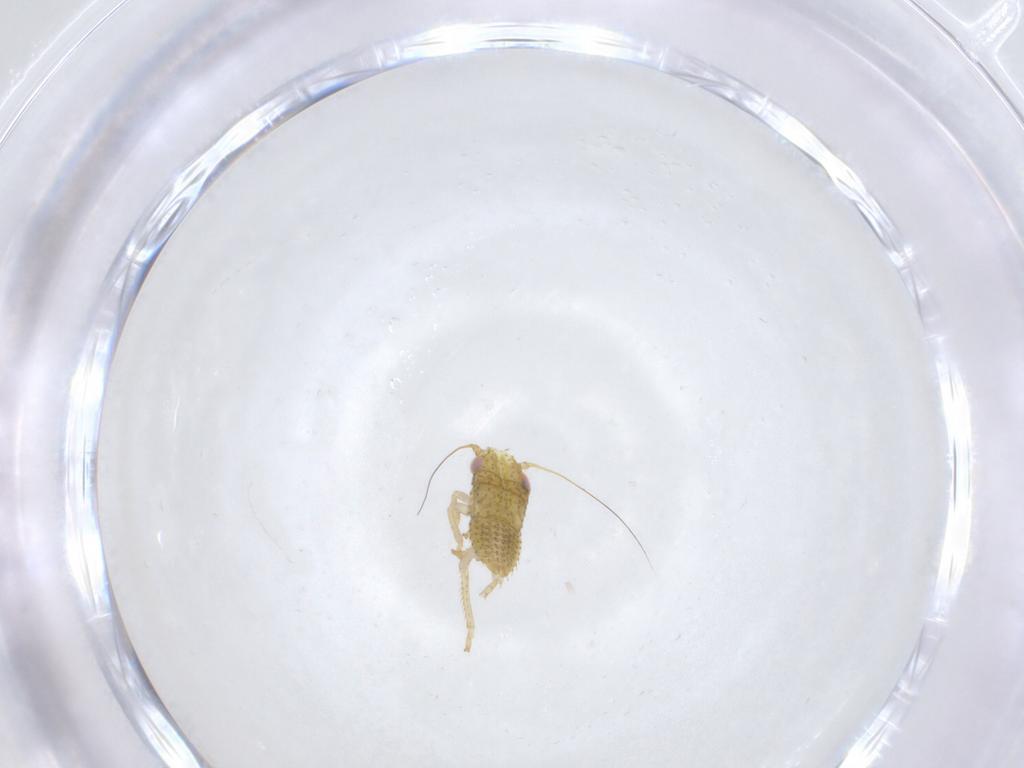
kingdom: Animalia
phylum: Arthropoda
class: Insecta
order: Hemiptera
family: Cicadellidae
